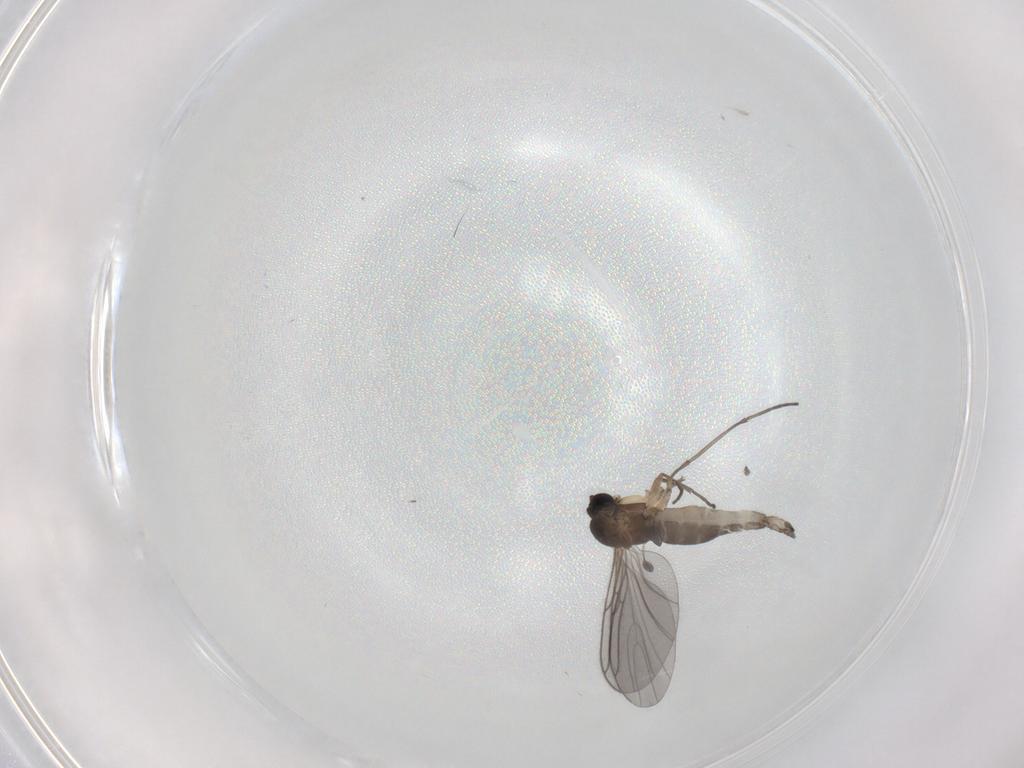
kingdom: Animalia
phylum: Arthropoda
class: Insecta
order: Diptera
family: Sciaridae
